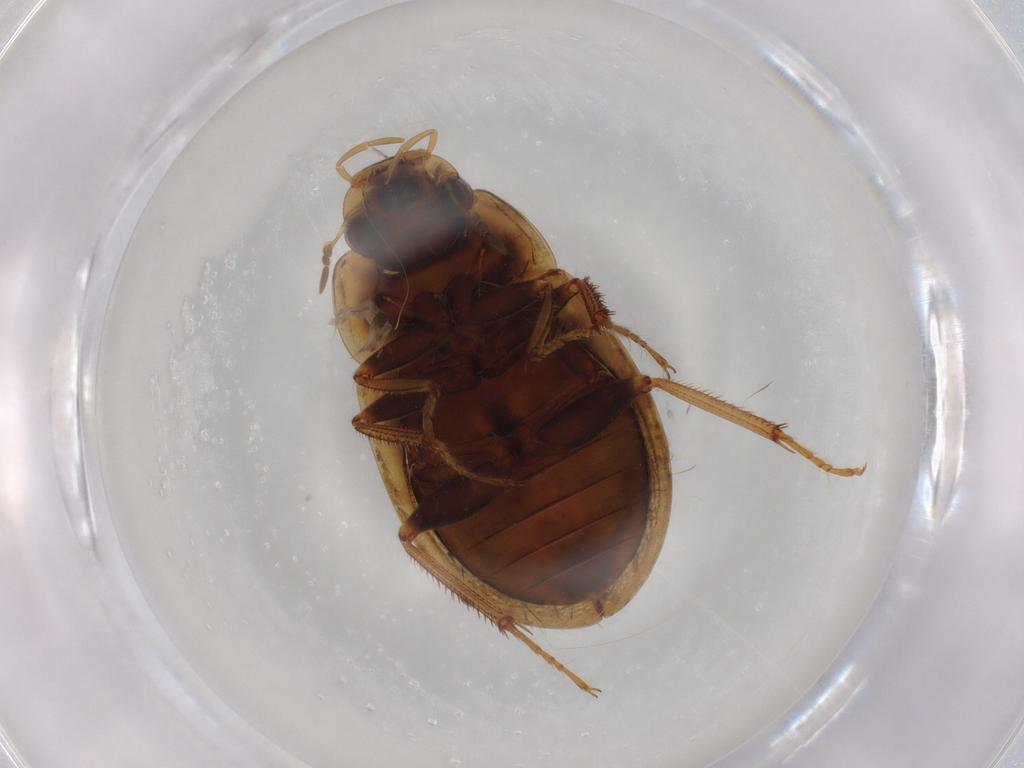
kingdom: Animalia
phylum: Arthropoda
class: Insecta
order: Coleoptera
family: Hydrophilidae
